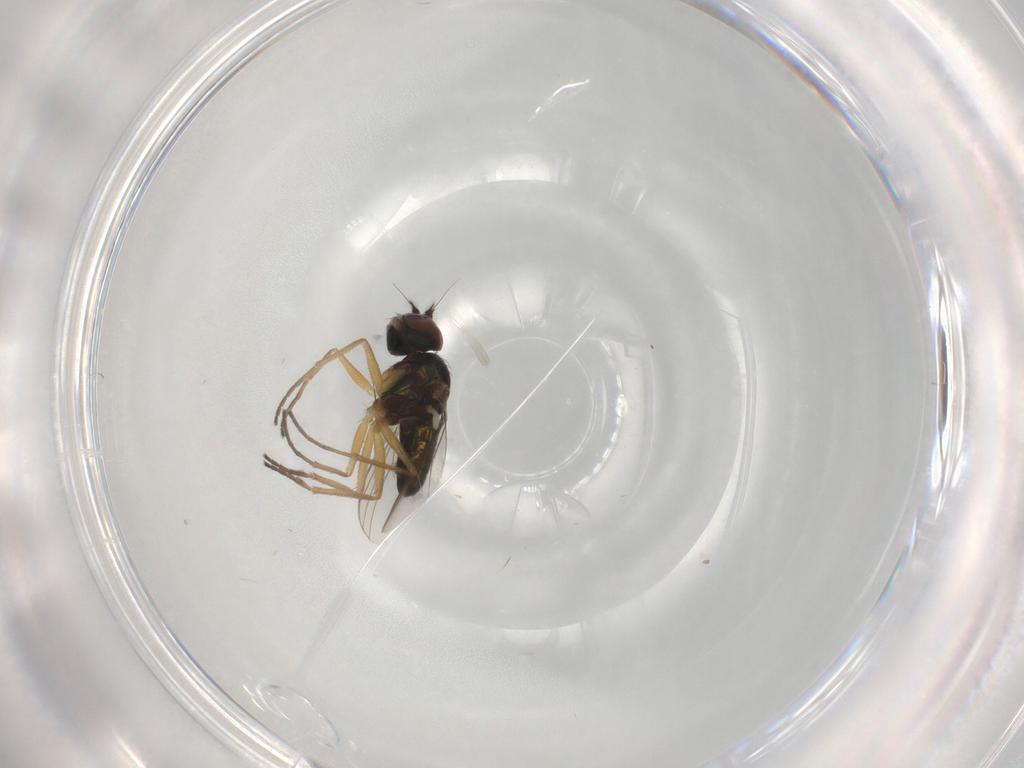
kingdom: Animalia
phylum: Arthropoda
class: Insecta
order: Diptera
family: Dolichopodidae
